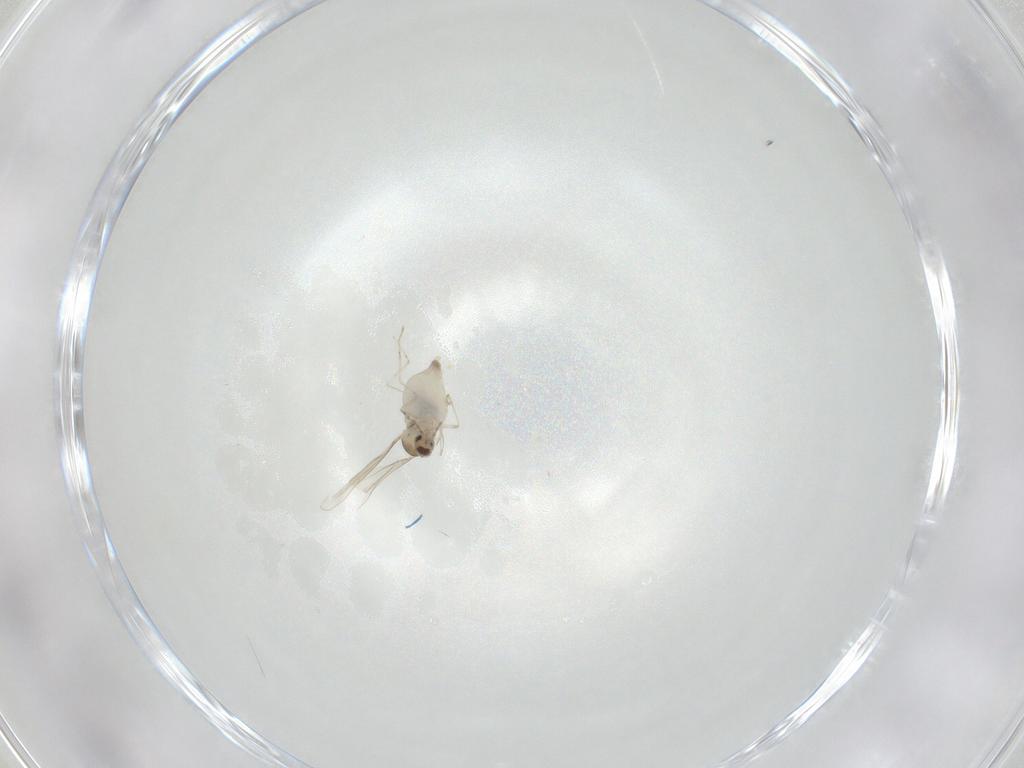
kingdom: Animalia
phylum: Arthropoda
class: Insecta
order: Diptera
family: Cecidomyiidae
